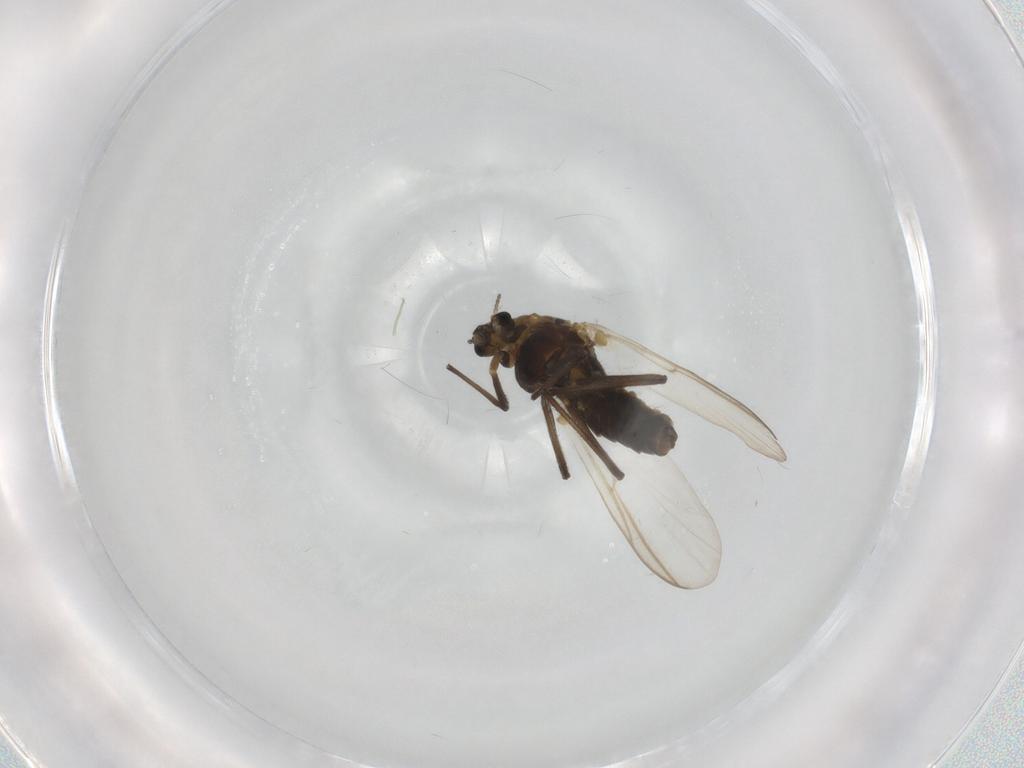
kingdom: Animalia
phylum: Arthropoda
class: Insecta
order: Diptera
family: Chironomidae
